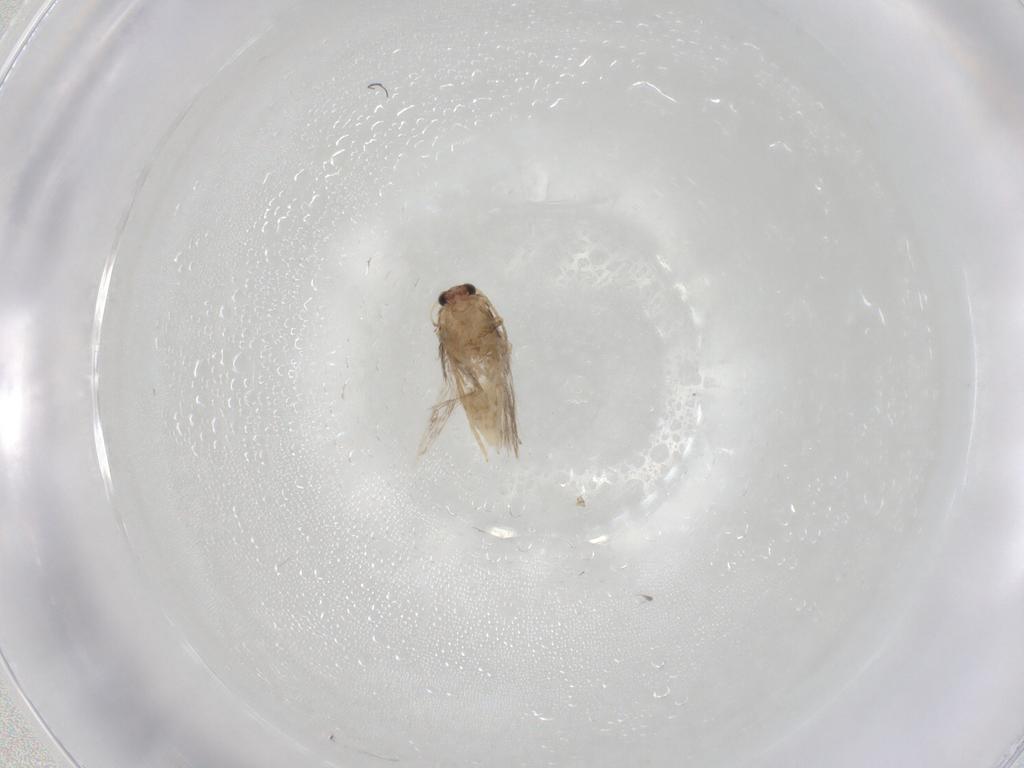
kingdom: Animalia
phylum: Arthropoda
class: Insecta
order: Lepidoptera
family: Nepticulidae
